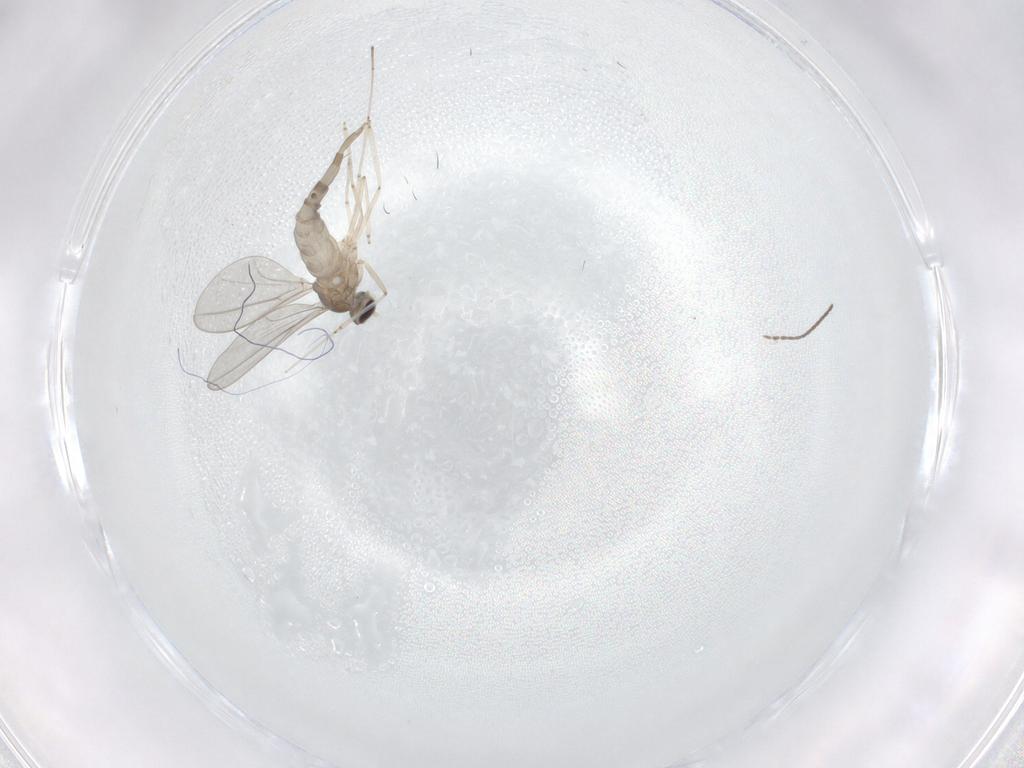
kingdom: Animalia
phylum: Arthropoda
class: Insecta
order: Diptera
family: Cecidomyiidae
